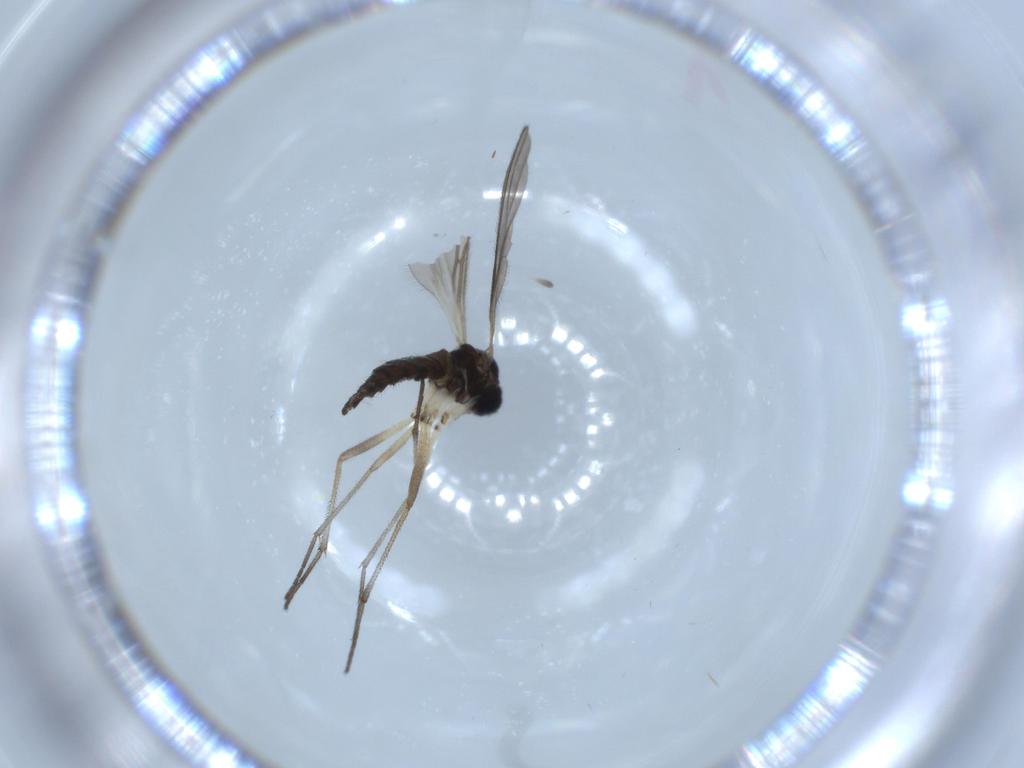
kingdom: Animalia
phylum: Arthropoda
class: Insecta
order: Diptera
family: Sciaridae
